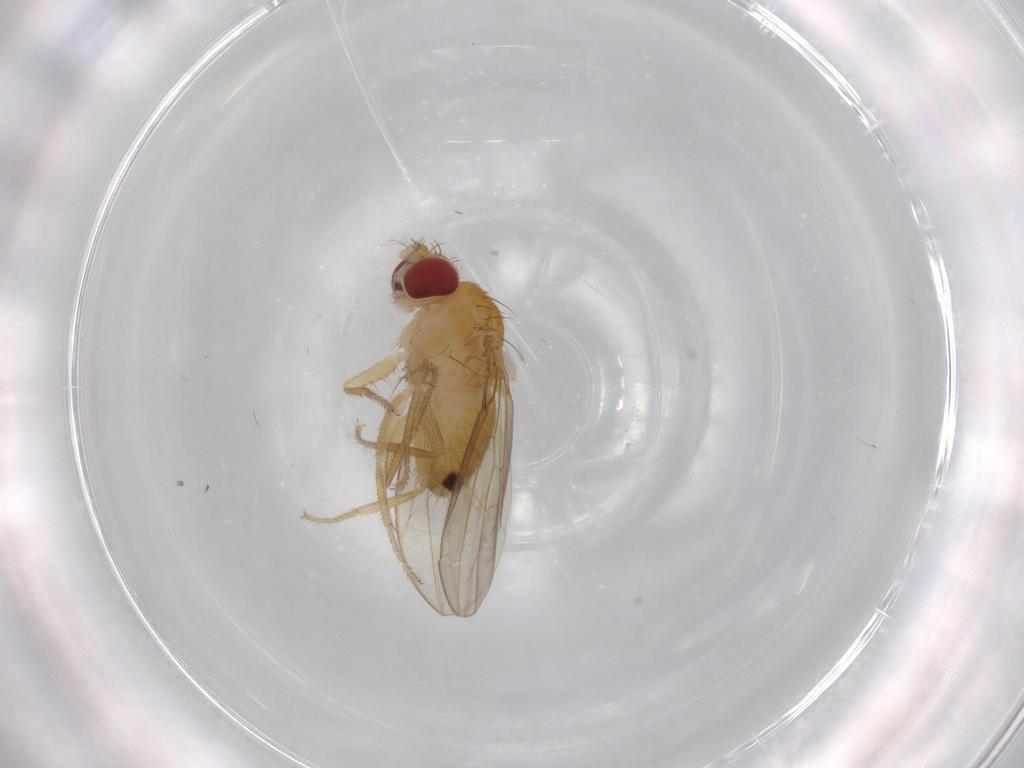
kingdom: Animalia
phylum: Arthropoda
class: Insecta
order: Diptera
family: Drosophilidae
